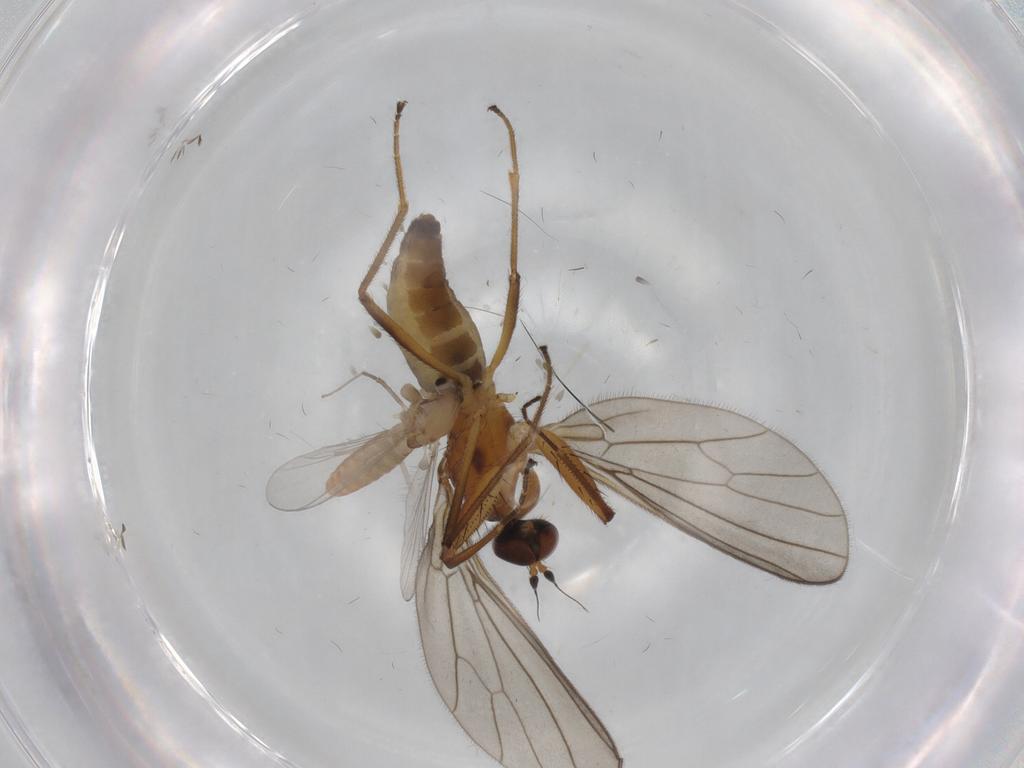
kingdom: Animalia
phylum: Arthropoda
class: Insecta
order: Diptera
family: Empididae
